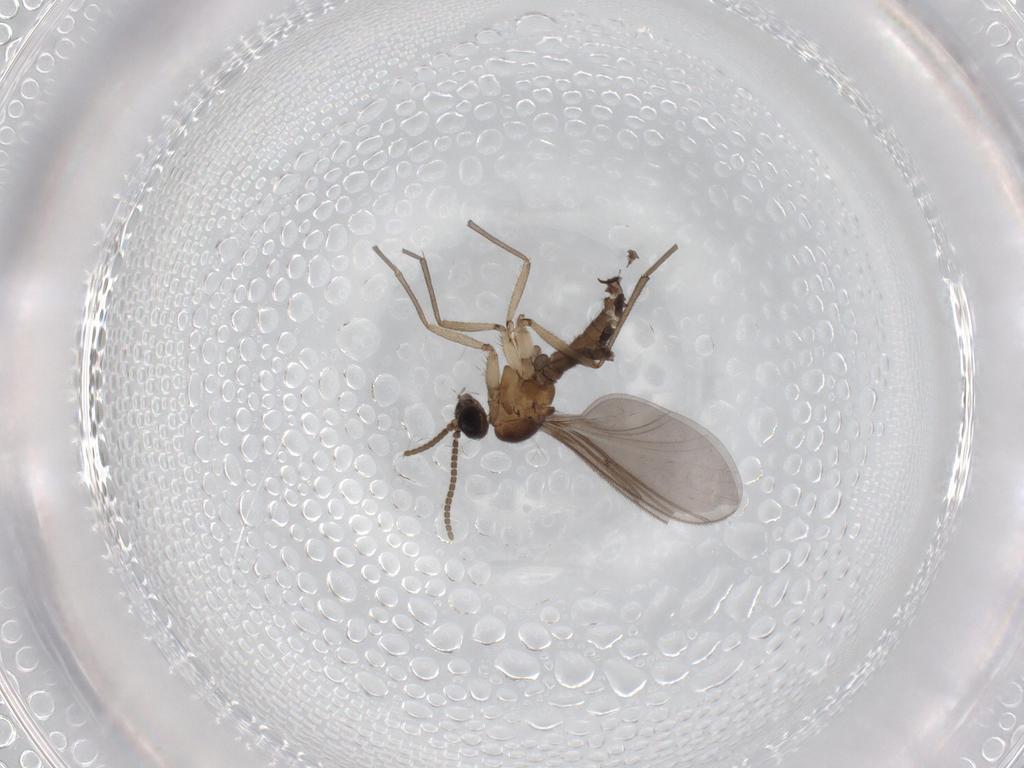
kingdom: Animalia
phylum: Arthropoda
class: Insecta
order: Diptera
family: Sciaridae
